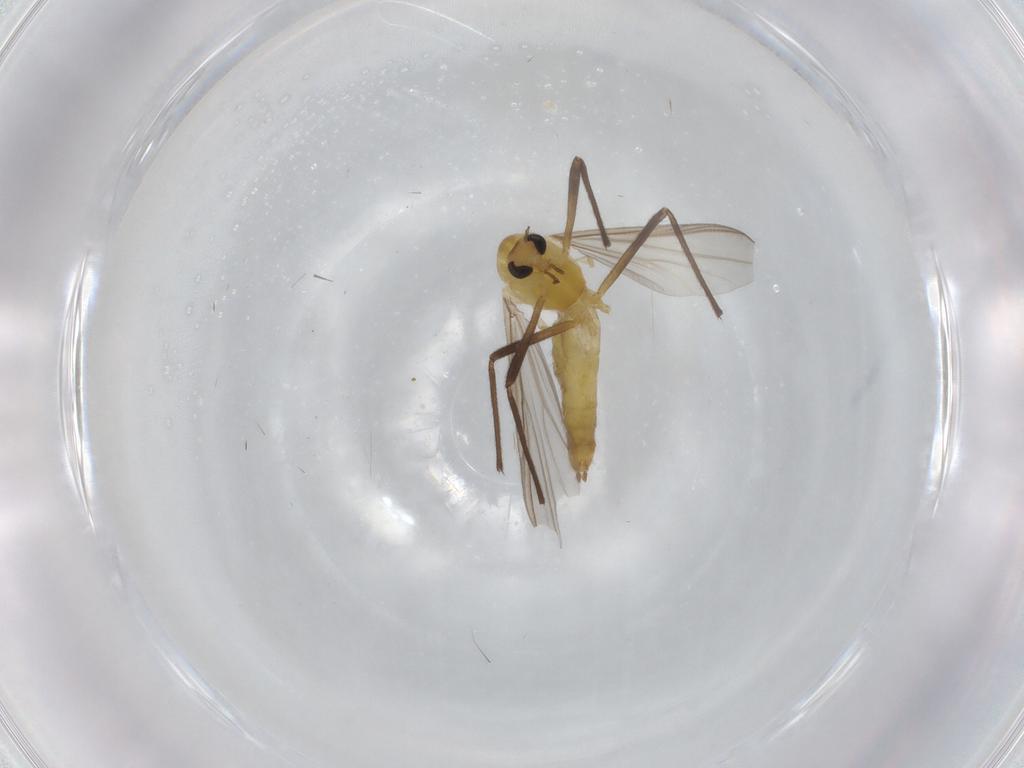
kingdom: Animalia
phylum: Arthropoda
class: Insecta
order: Diptera
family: Chironomidae
